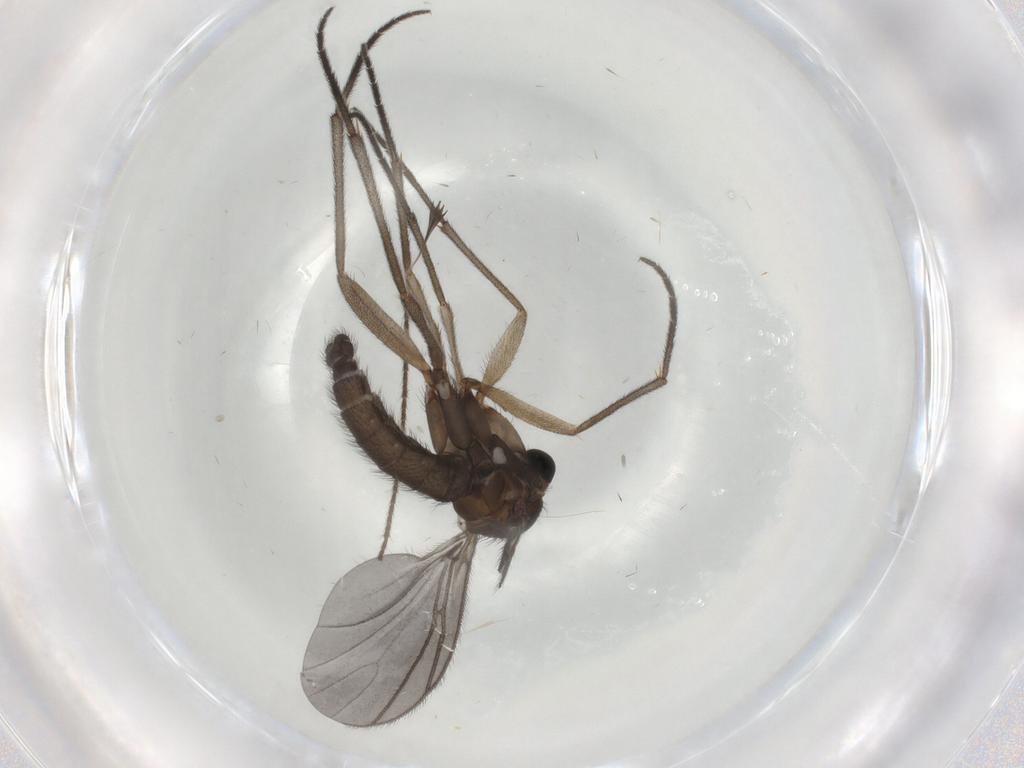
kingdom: Animalia
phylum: Arthropoda
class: Insecta
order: Diptera
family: Sciaridae
